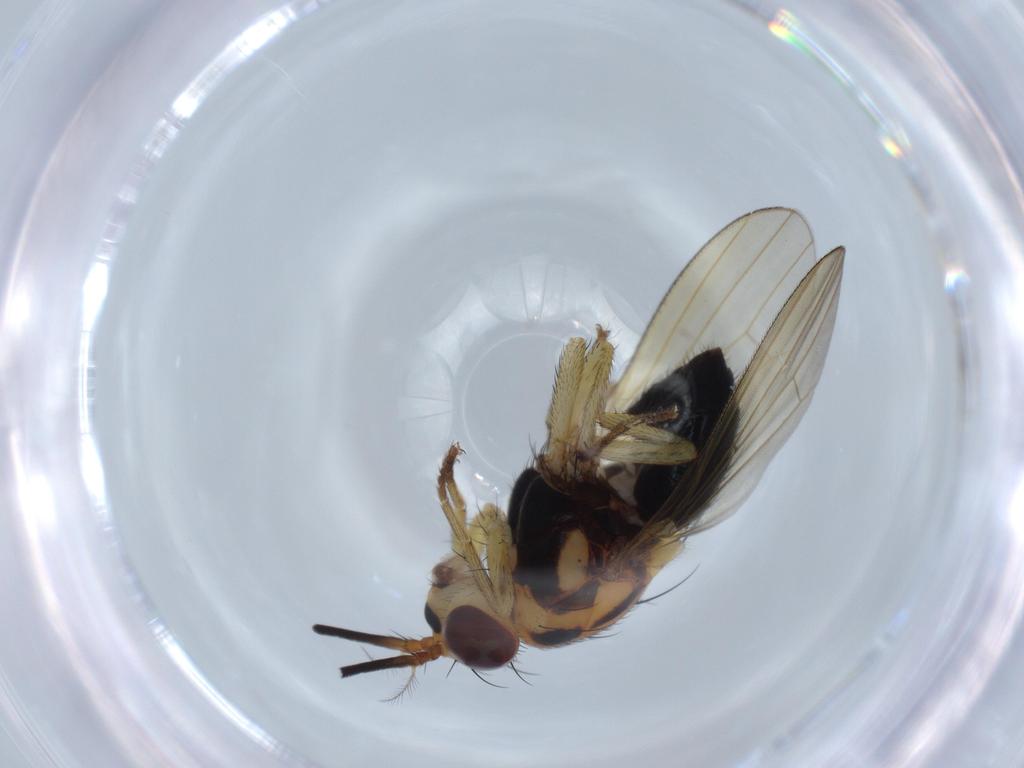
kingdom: Animalia
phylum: Arthropoda
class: Insecta
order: Diptera
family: Lauxaniidae
